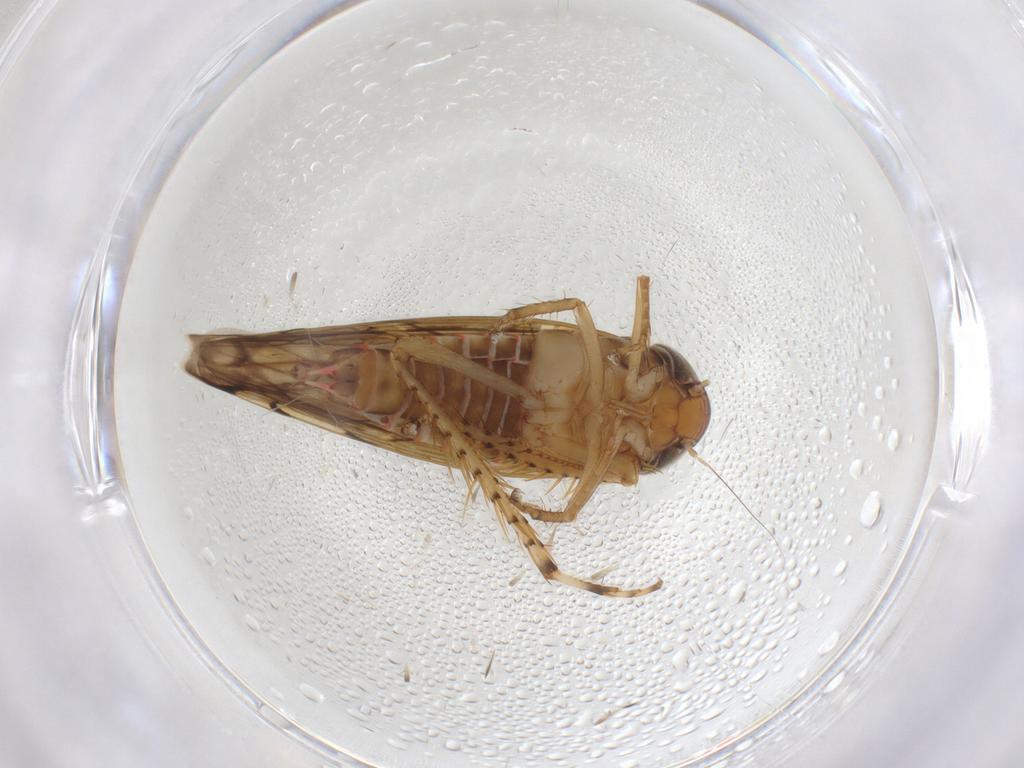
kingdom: Animalia
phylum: Arthropoda
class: Insecta
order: Hemiptera
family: Cicadellidae
